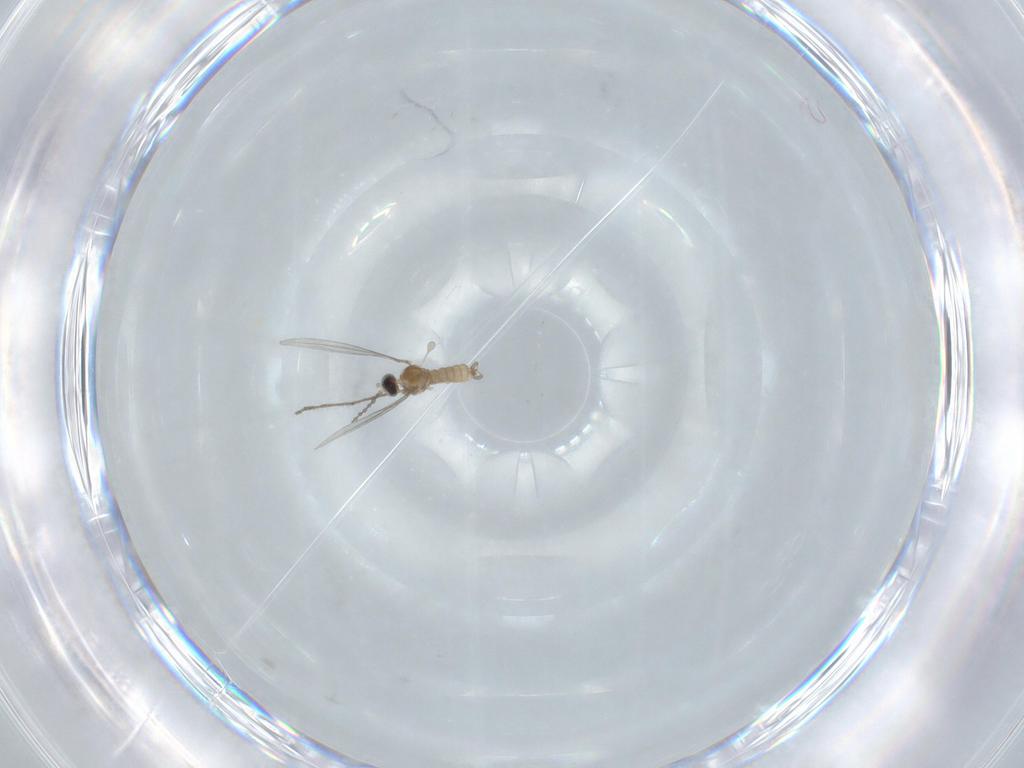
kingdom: Animalia
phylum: Arthropoda
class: Insecta
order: Diptera
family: Cecidomyiidae
